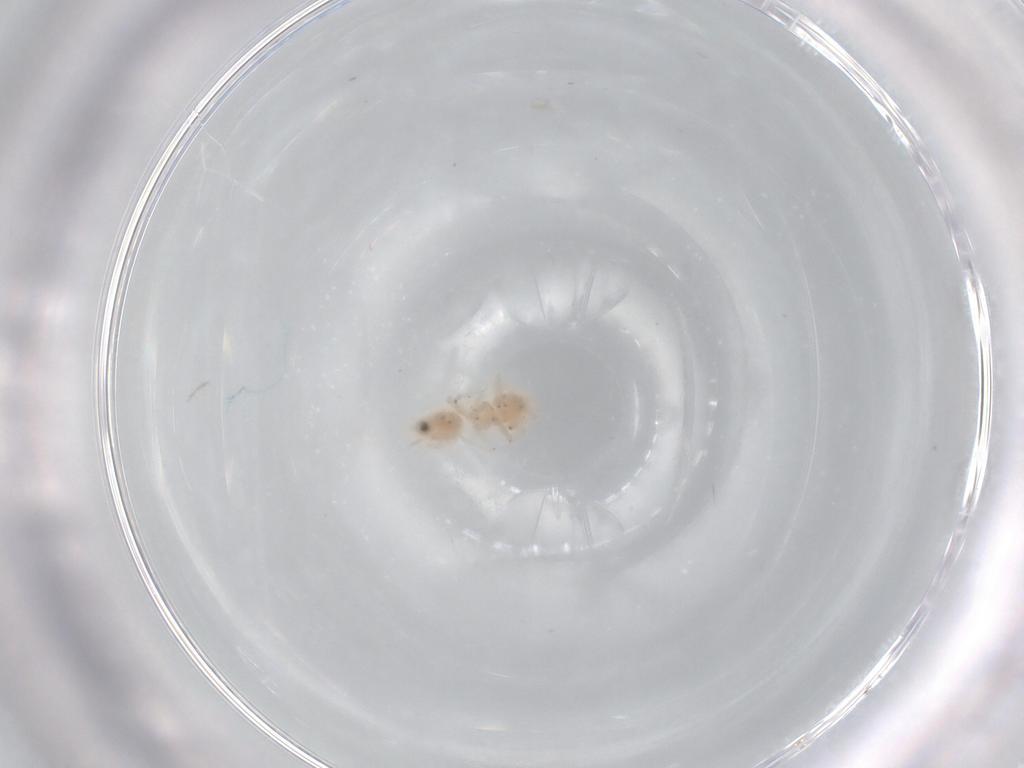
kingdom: Animalia
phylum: Arthropoda
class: Insecta
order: Psocodea
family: Caeciliusidae
